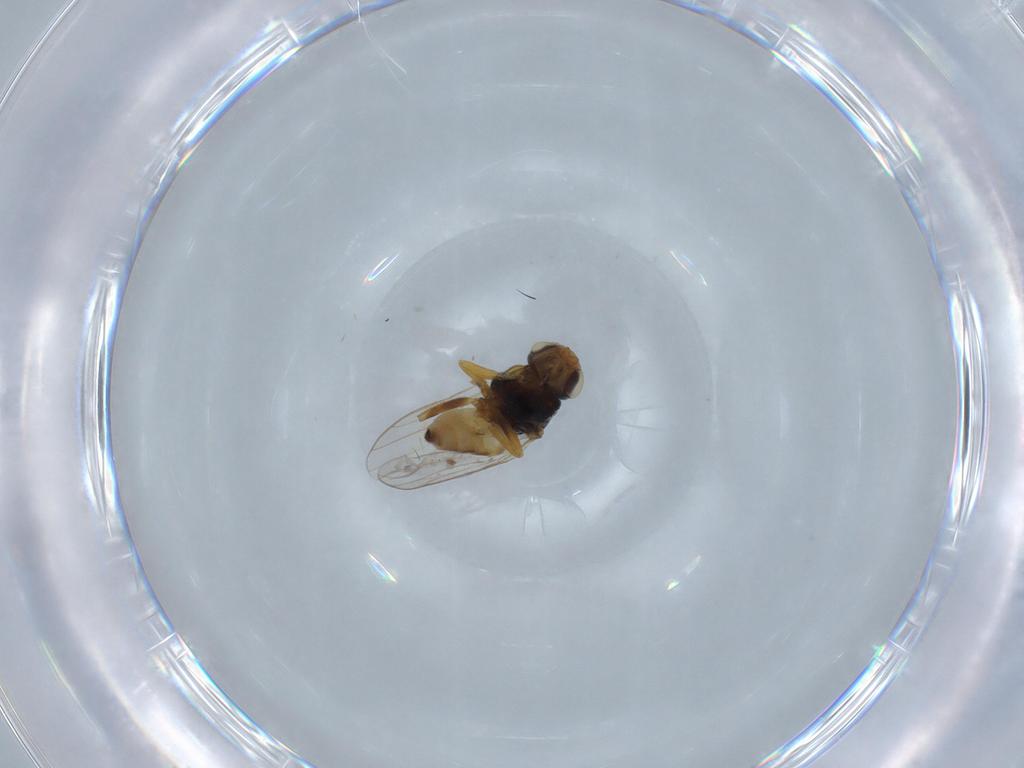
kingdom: Animalia
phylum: Arthropoda
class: Insecta
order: Diptera
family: Chloropidae
